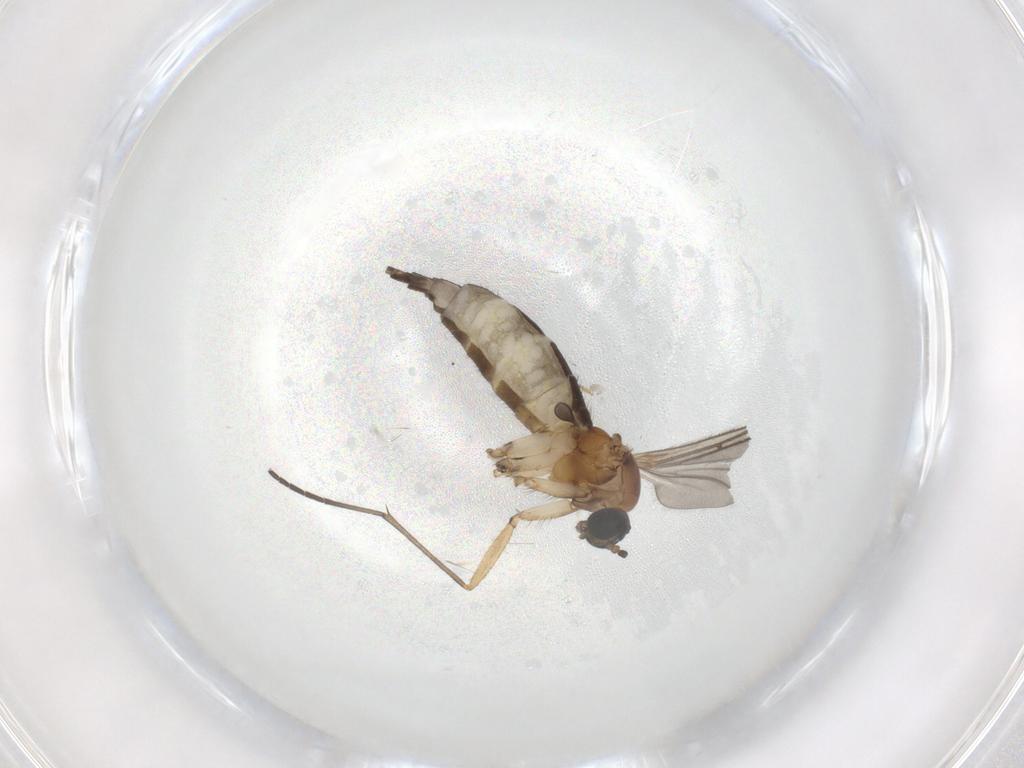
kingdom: Animalia
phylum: Arthropoda
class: Insecta
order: Diptera
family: Sciaridae
